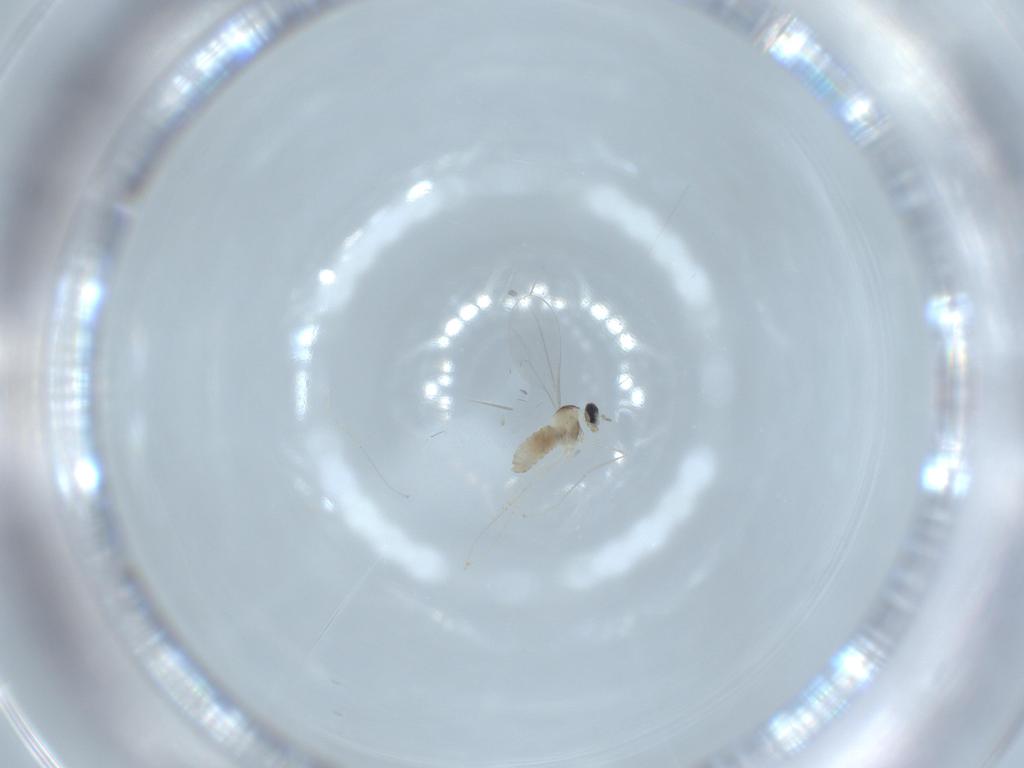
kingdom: Animalia
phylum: Arthropoda
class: Insecta
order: Diptera
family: Cecidomyiidae
